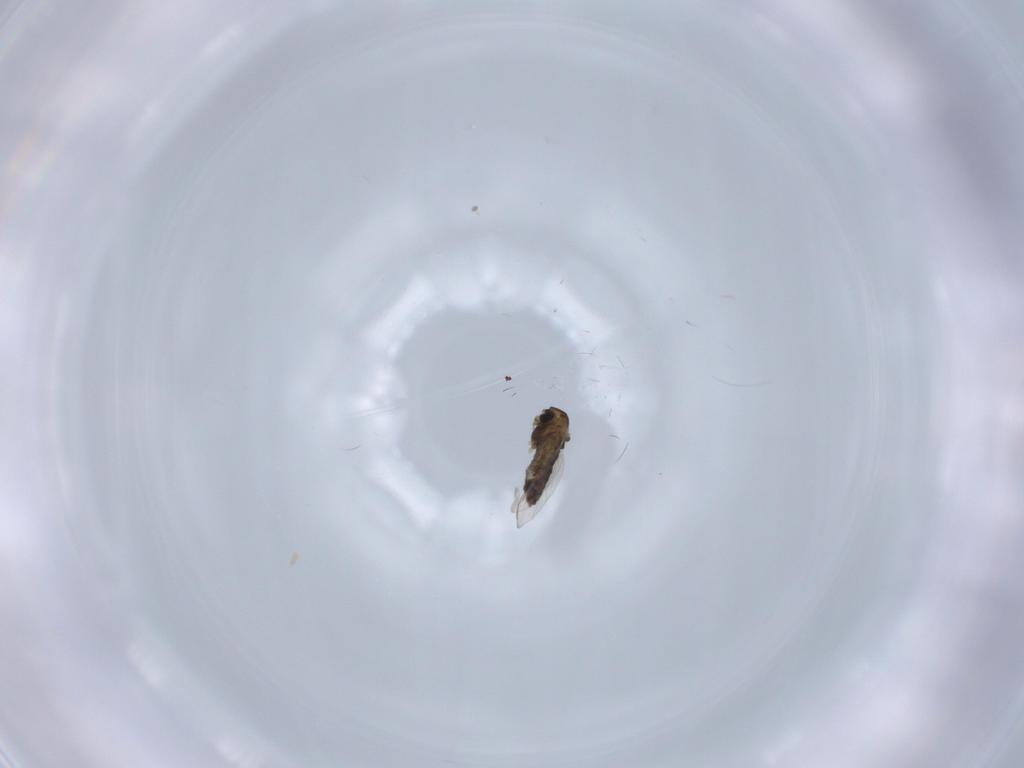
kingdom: Animalia
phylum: Arthropoda
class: Insecta
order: Diptera
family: Chironomidae
